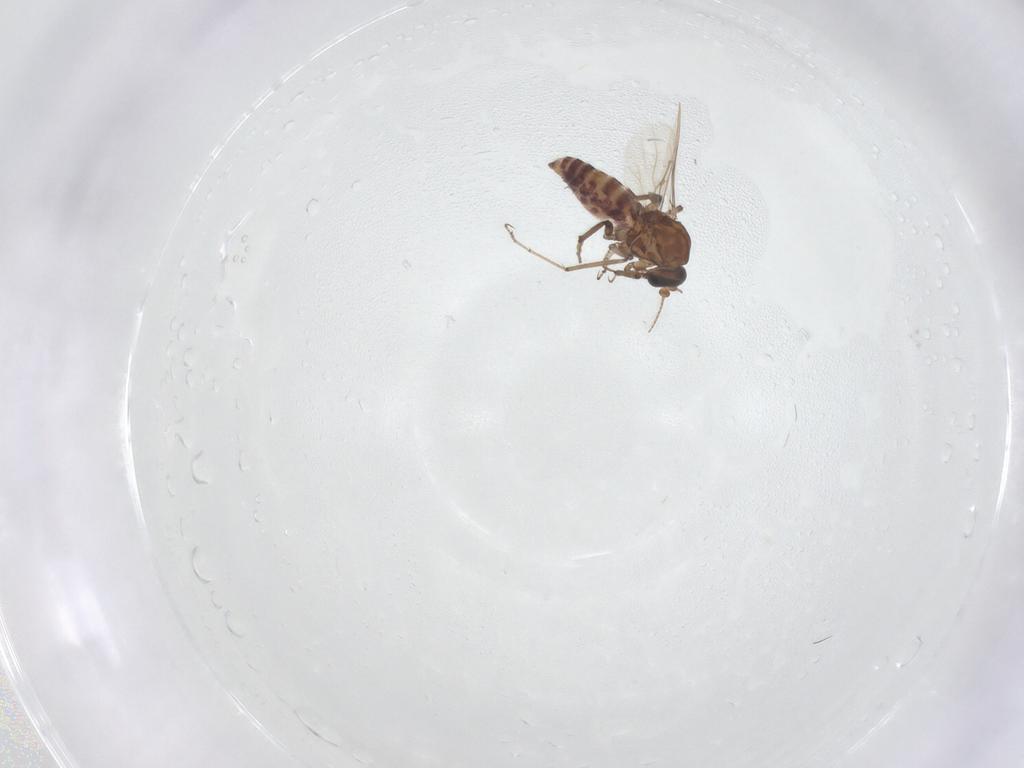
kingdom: Animalia
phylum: Arthropoda
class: Insecta
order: Diptera
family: Ceratopogonidae
